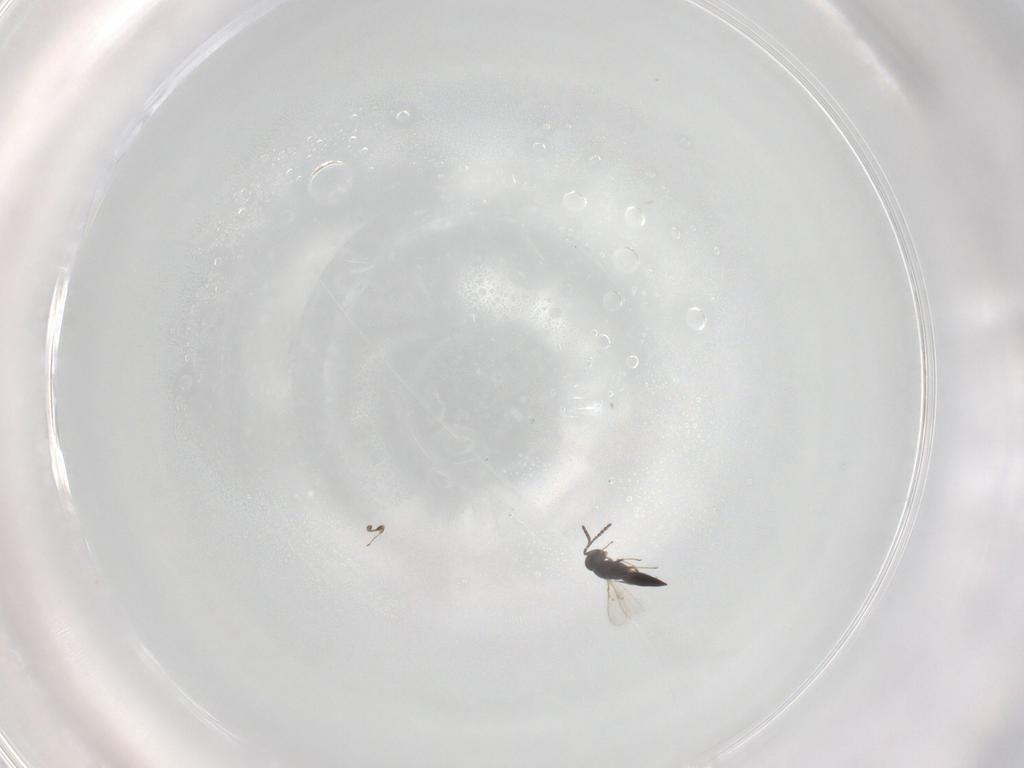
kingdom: Animalia
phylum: Arthropoda
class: Insecta
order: Hymenoptera
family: Scelionidae
